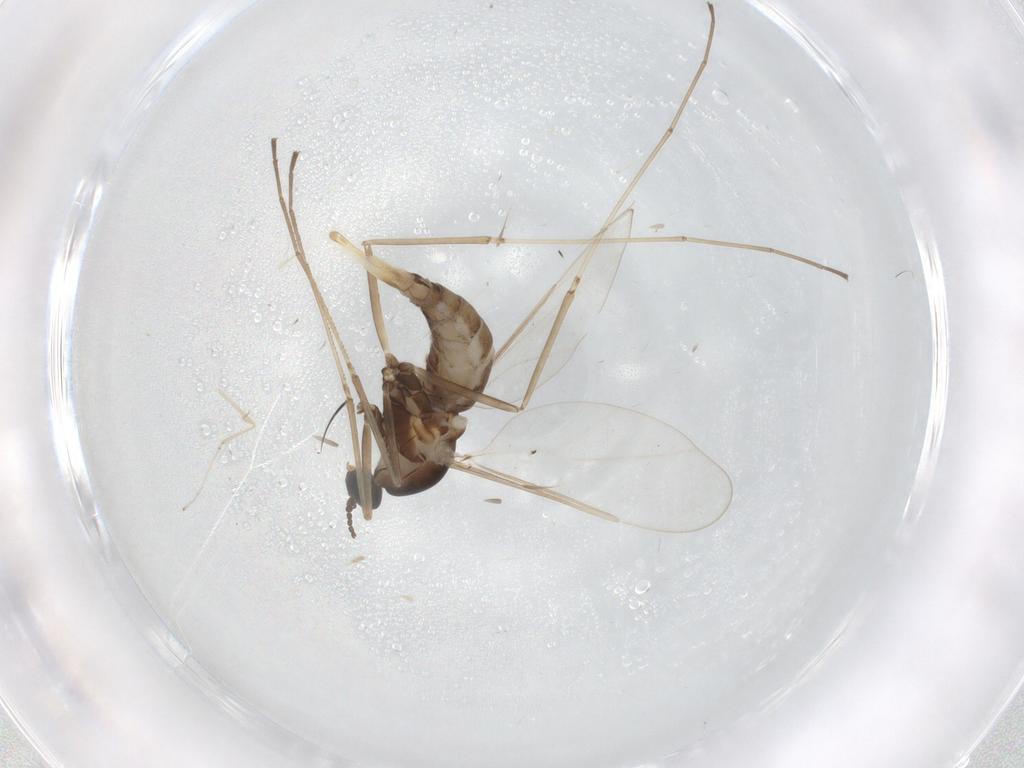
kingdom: Animalia
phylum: Arthropoda
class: Insecta
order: Diptera
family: Cecidomyiidae
